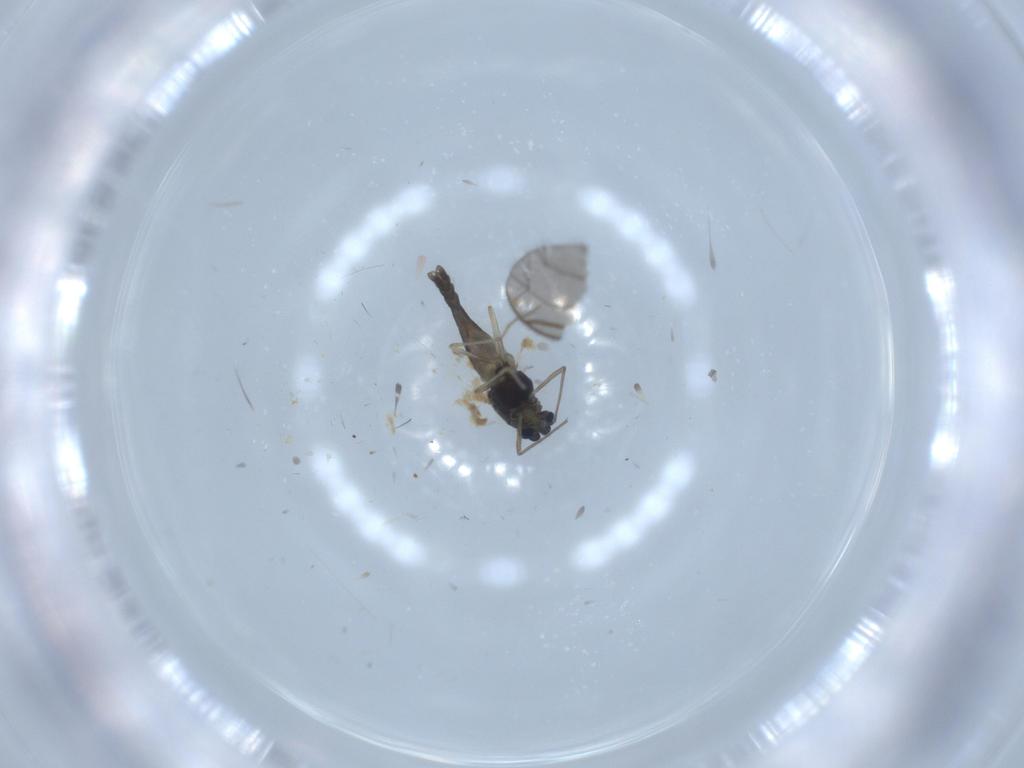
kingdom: Animalia
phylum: Arthropoda
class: Insecta
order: Diptera
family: Chironomidae
